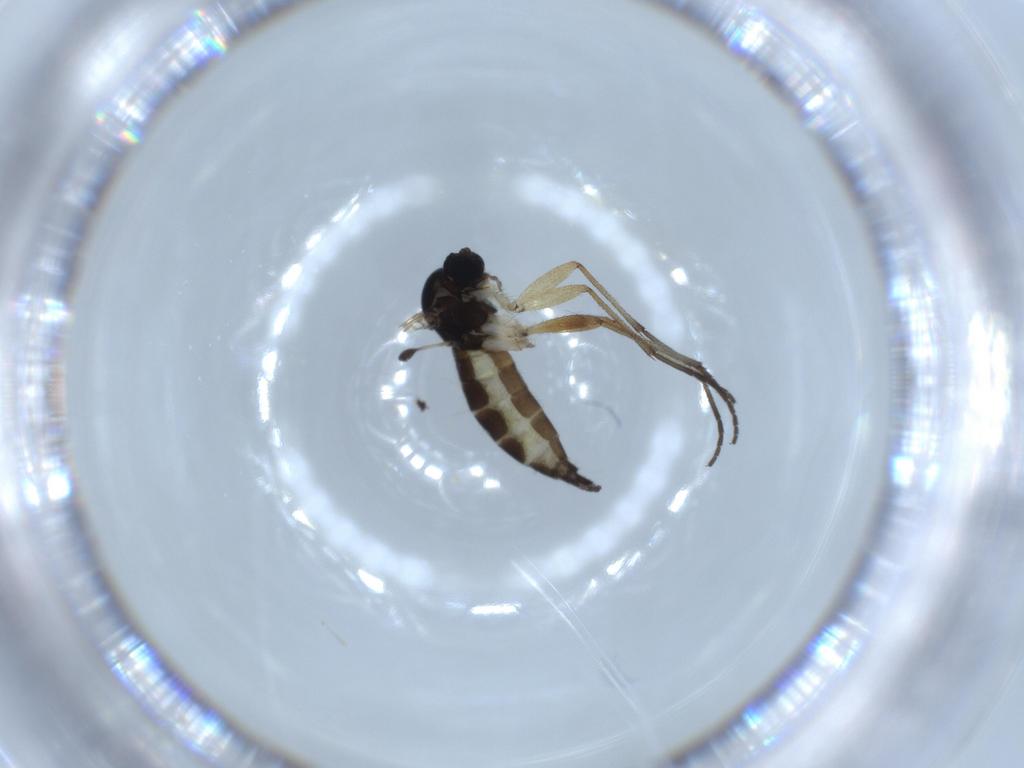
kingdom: Animalia
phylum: Arthropoda
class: Insecta
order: Diptera
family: Sciaridae
